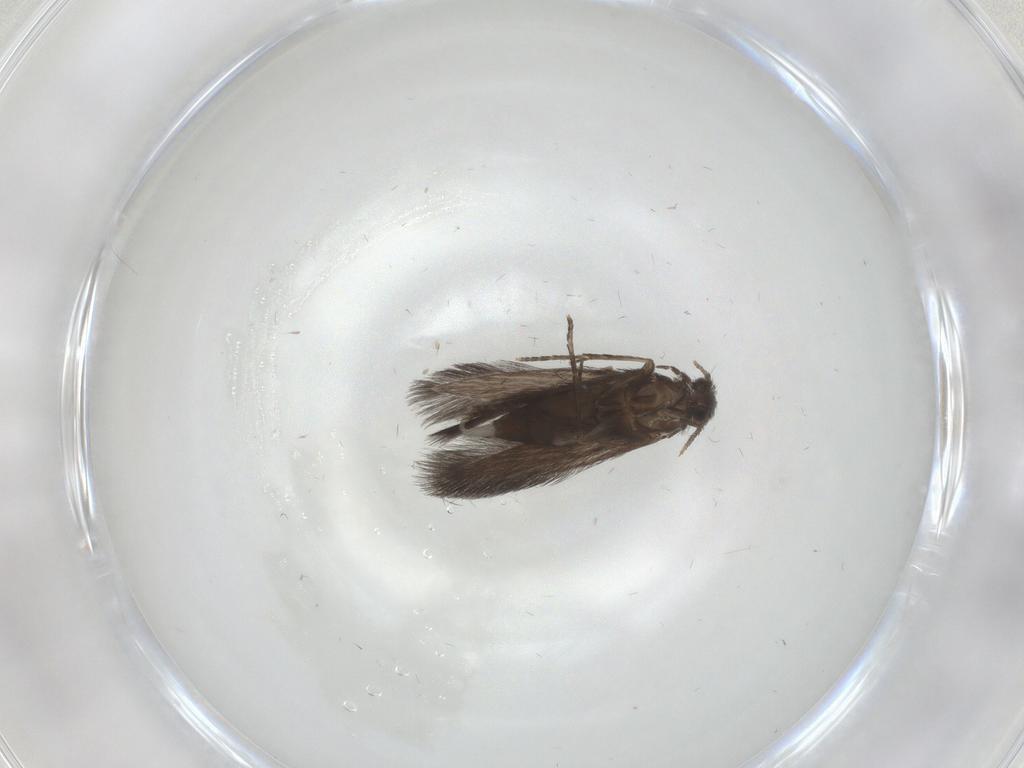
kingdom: Animalia
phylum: Arthropoda
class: Insecta
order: Trichoptera
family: Hydroptilidae
